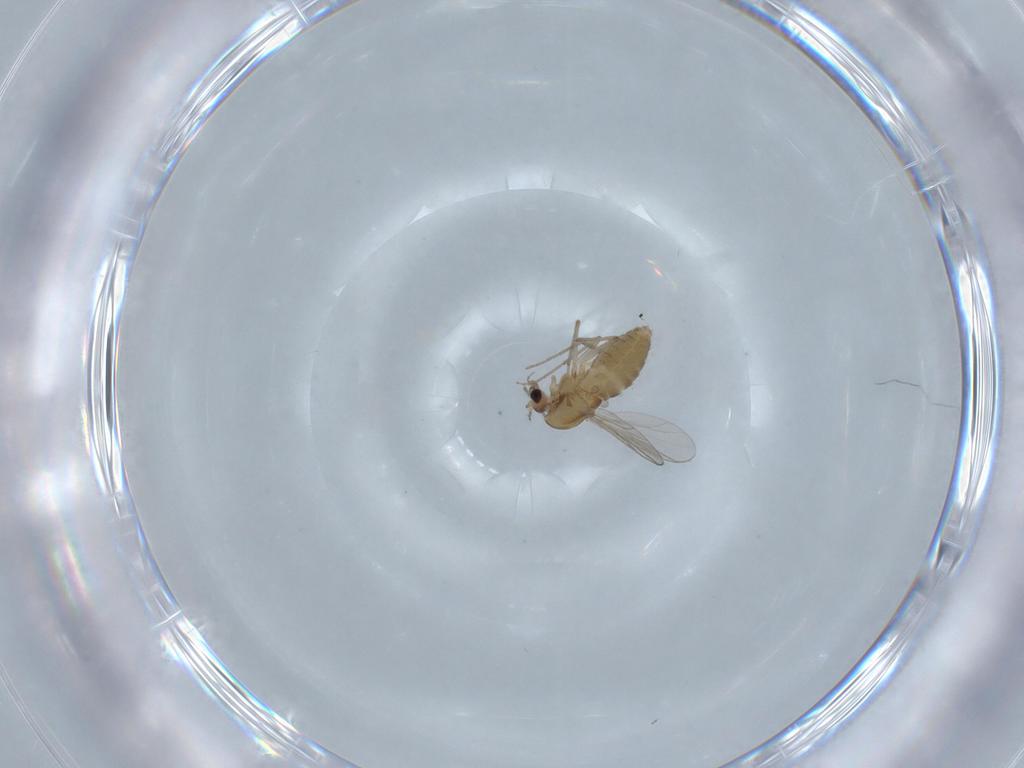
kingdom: Animalia
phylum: Arthropoda
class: Insecta
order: Diptera
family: Chironomidae
